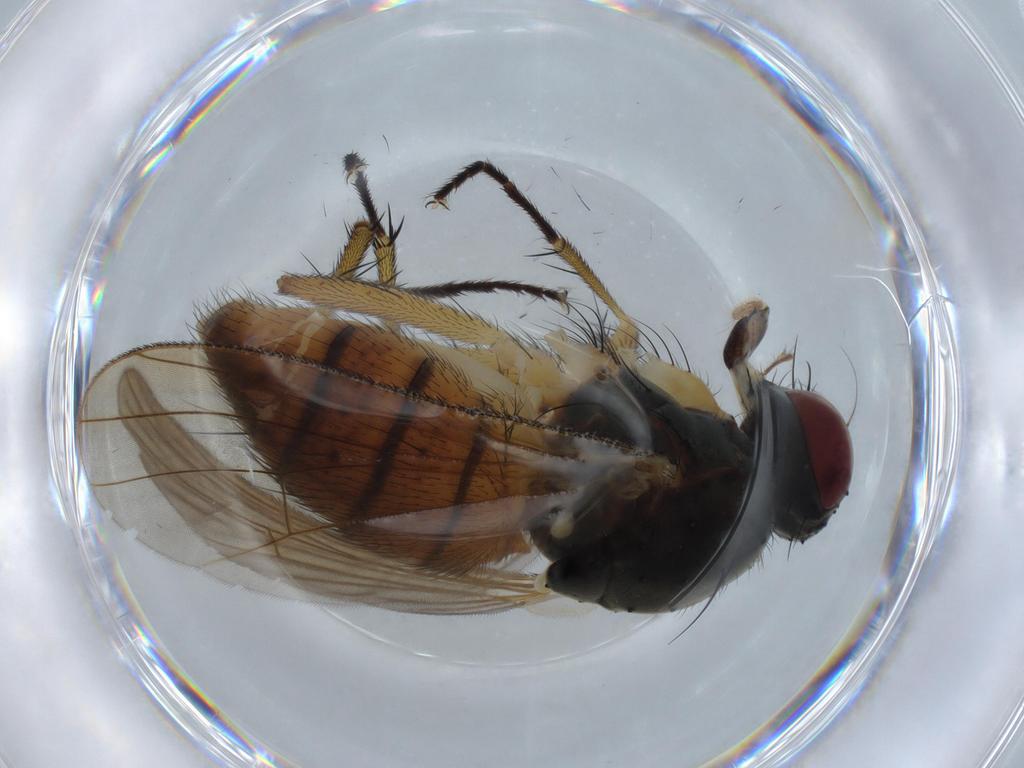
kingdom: Animalia
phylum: Arthropoda
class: Insecta
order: Diptera
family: Muscidae
